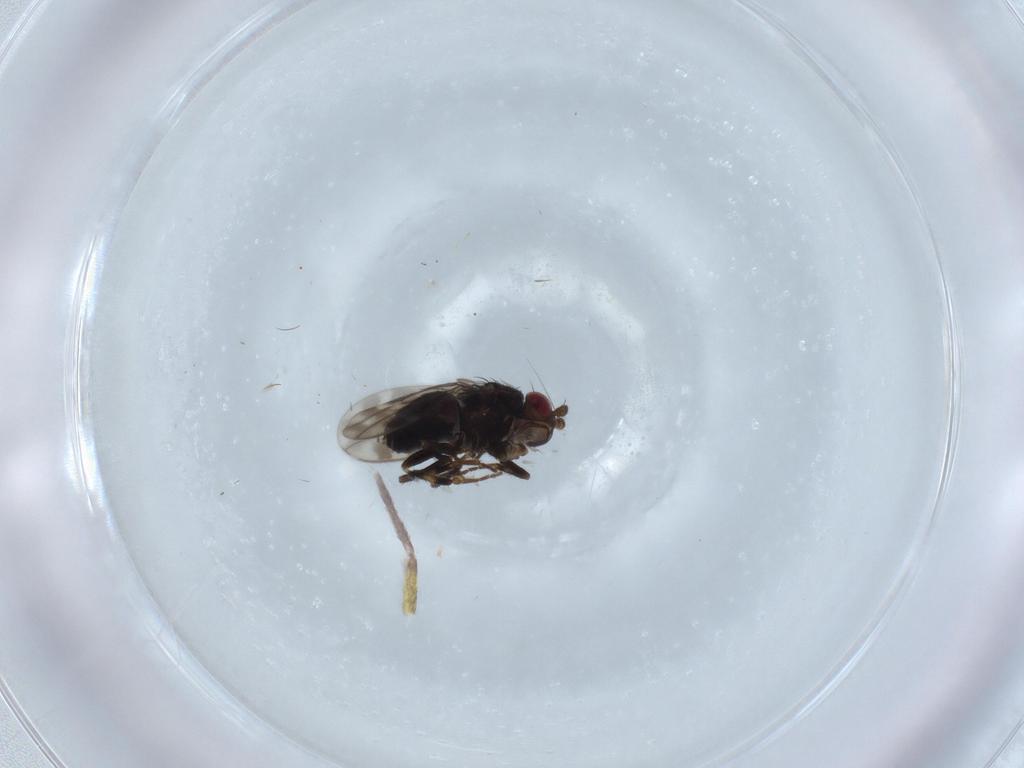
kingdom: Animalia
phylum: Arthropoda
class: Insecta
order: Diptera
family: Sphaeroceridae
